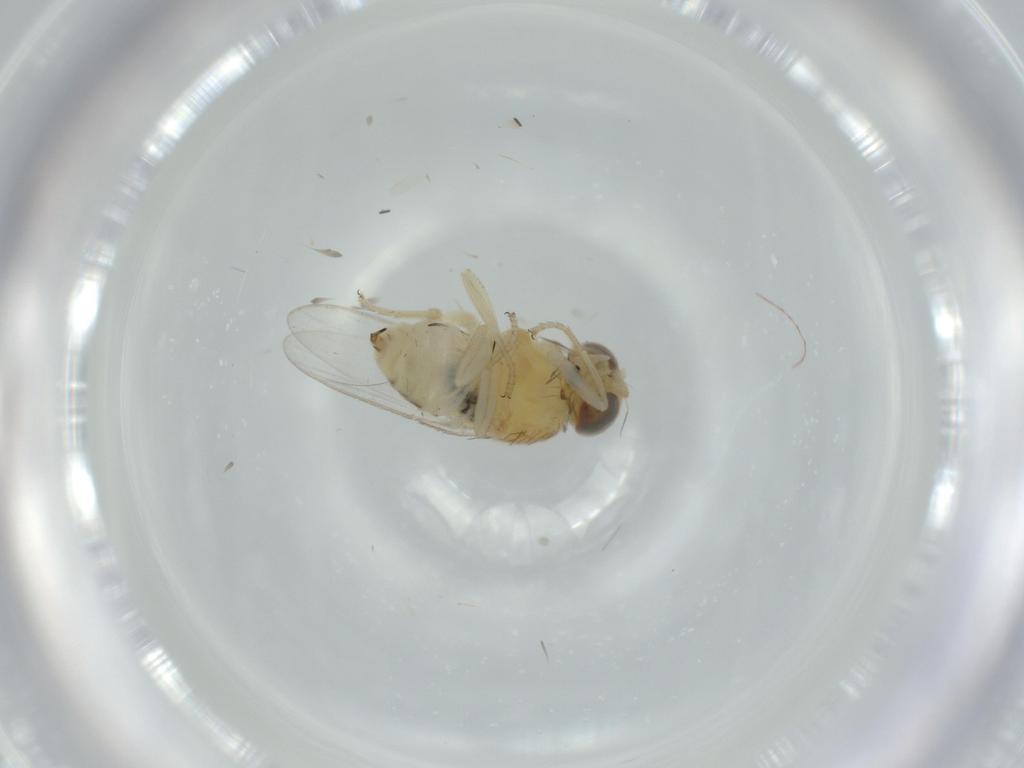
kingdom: Animalia
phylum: Arthropoda
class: Insecta
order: Diptera
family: Chloropidae
